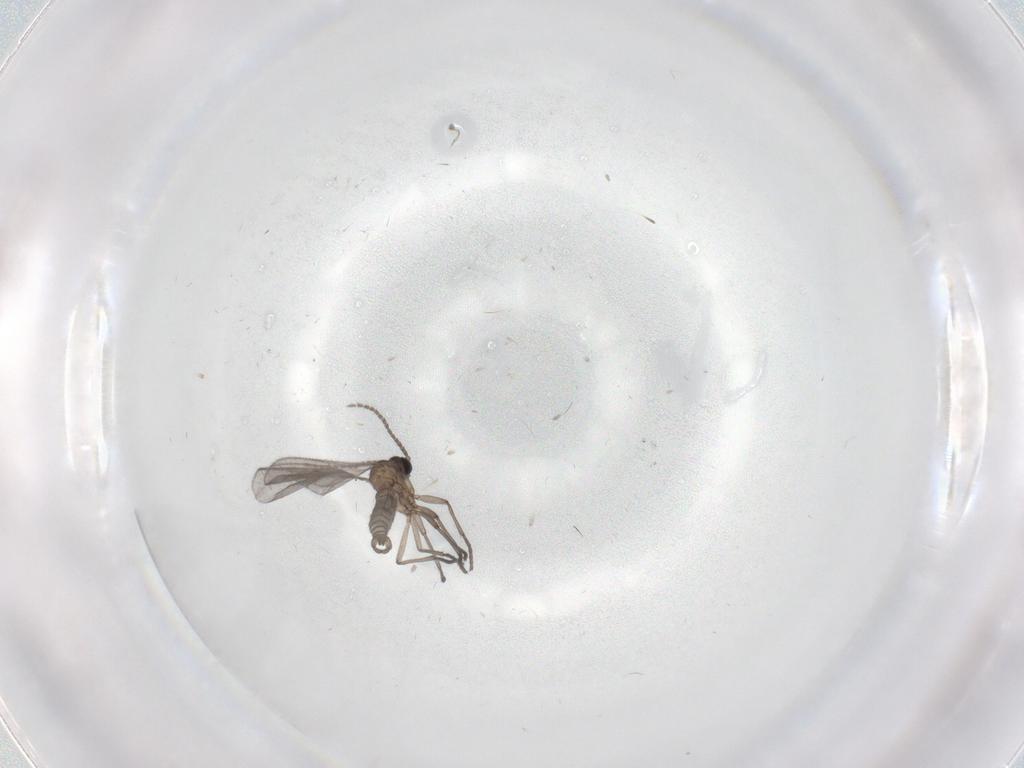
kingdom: Animalia
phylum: Arthropoda
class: Insecta
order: Diptera
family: Sciaridae
